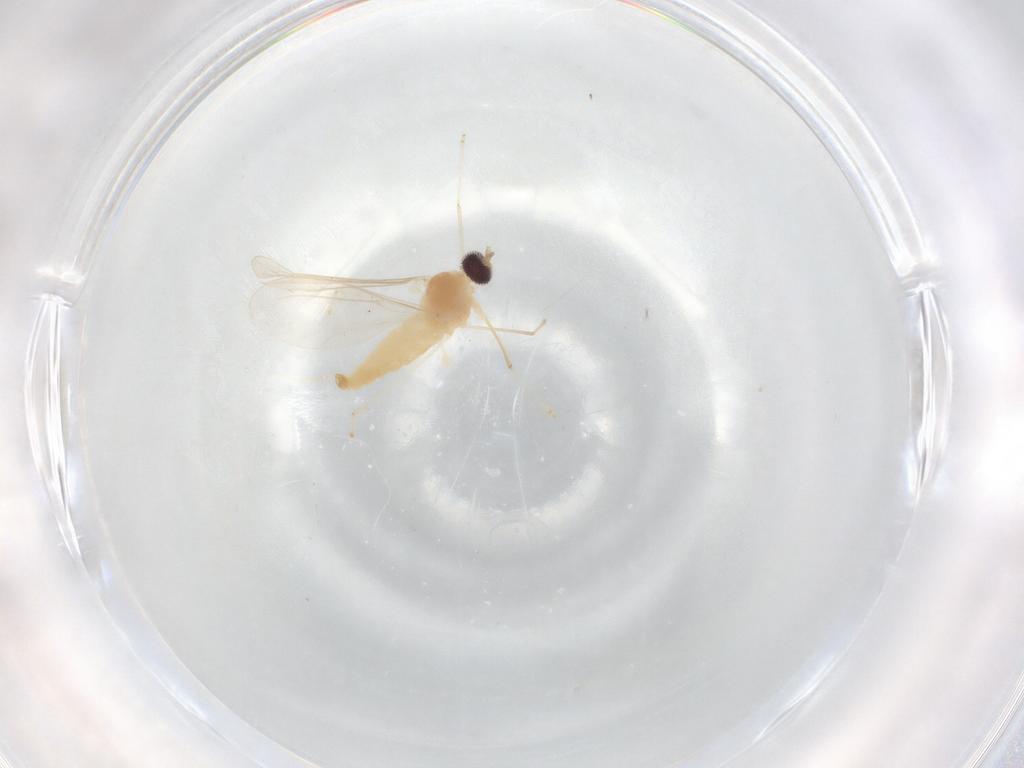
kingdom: Animalia
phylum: Arthropoda
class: Insecta
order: Diptera
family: Cecidomyiidae
